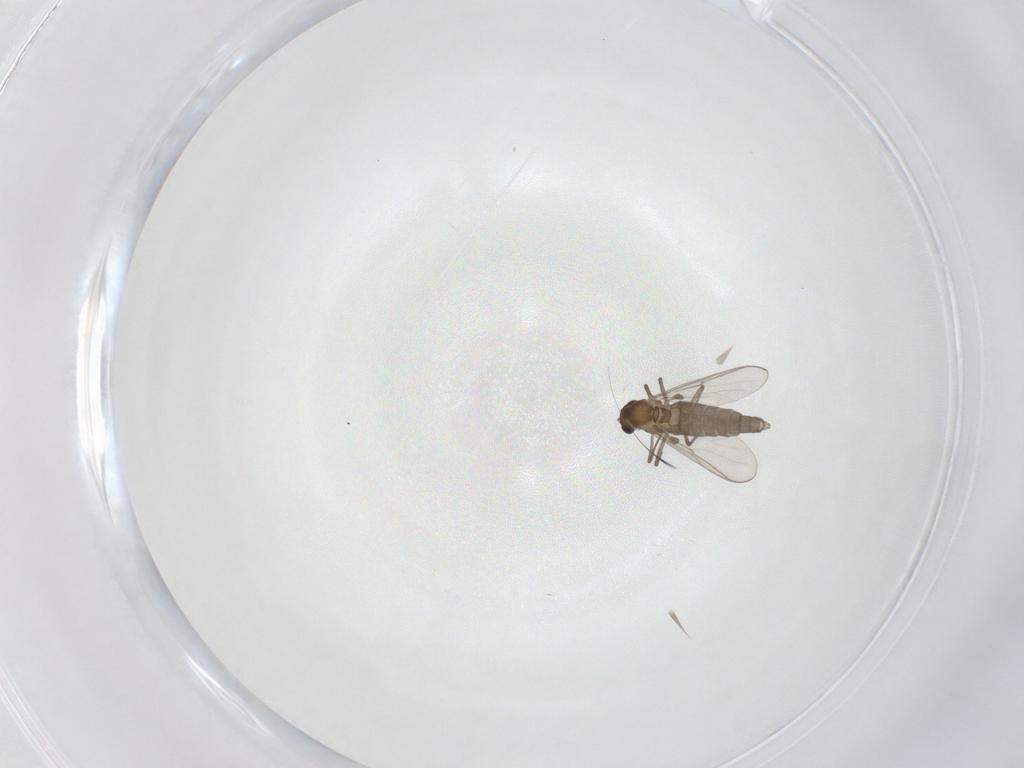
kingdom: Animalia
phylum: Arthropoda
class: Insecta
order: Diptera
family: Chironomidae
